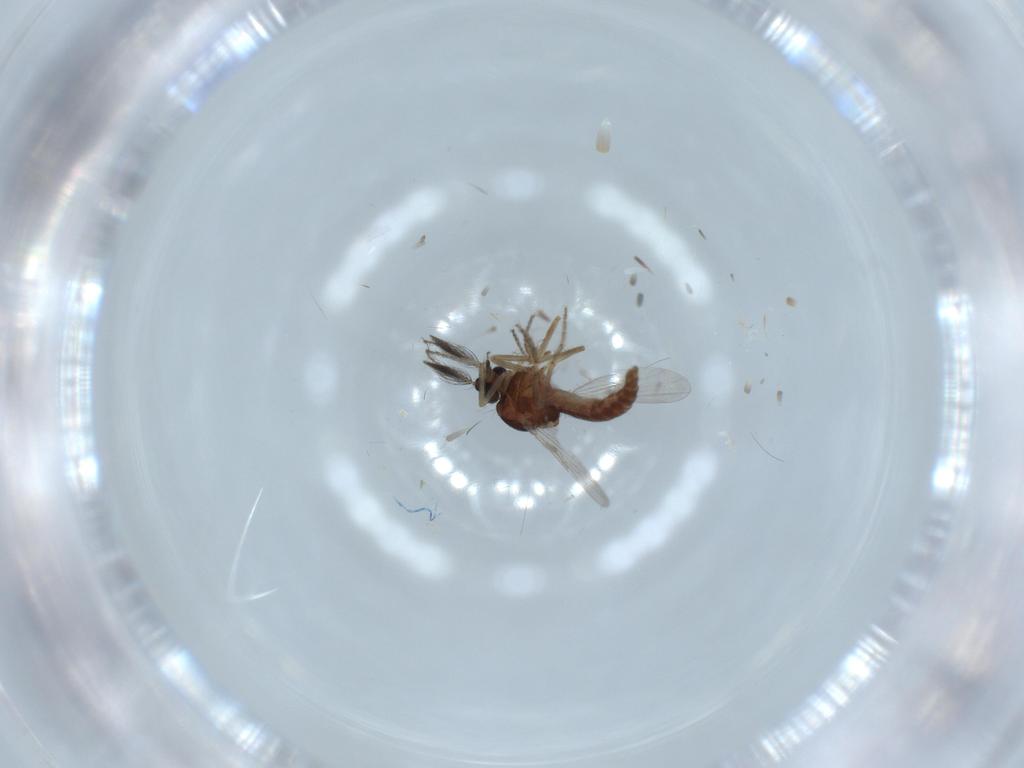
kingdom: Animalia
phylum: Arthropoda
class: Insecta
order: Diptera
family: Ceratopogonidae
